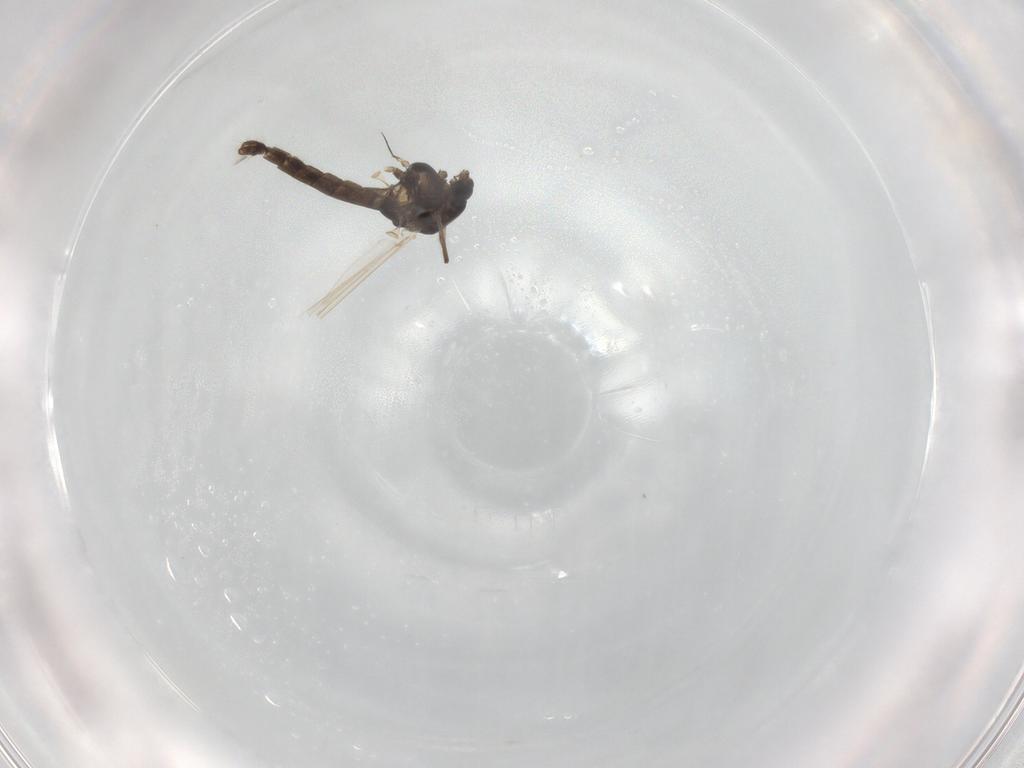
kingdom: Animalia
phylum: Arthropoda
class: Insecta
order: Diptera
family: Chironomidae
